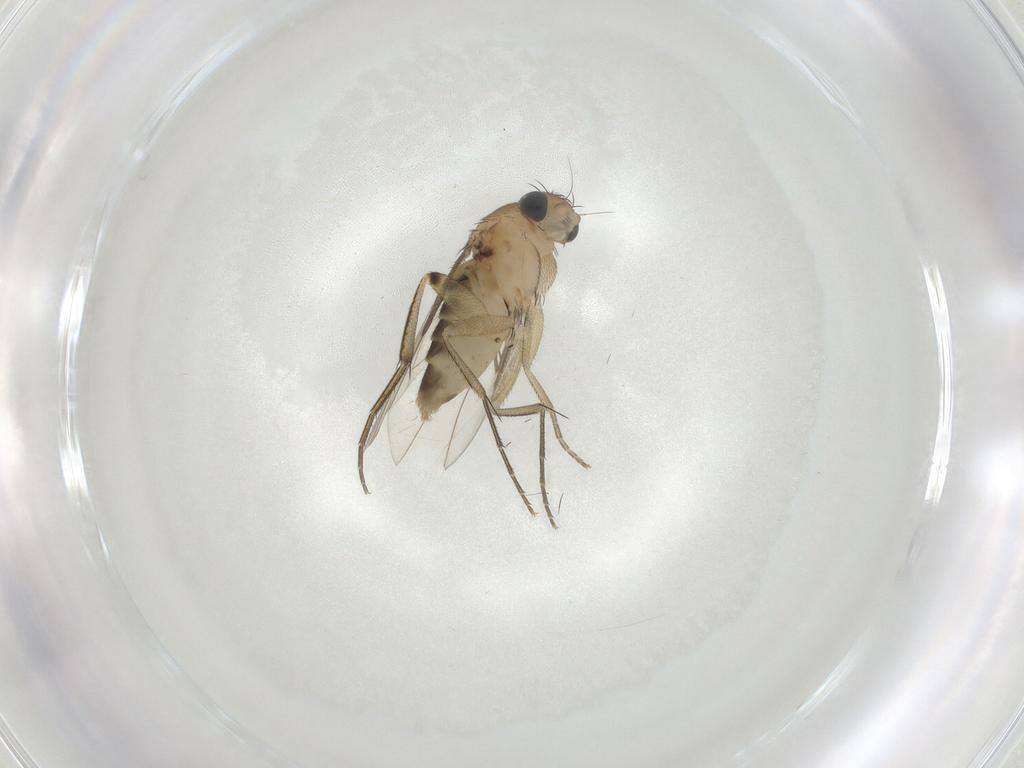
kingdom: Animalia
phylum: Arthropoda
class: Insecta
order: Diptera
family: Phoridae
